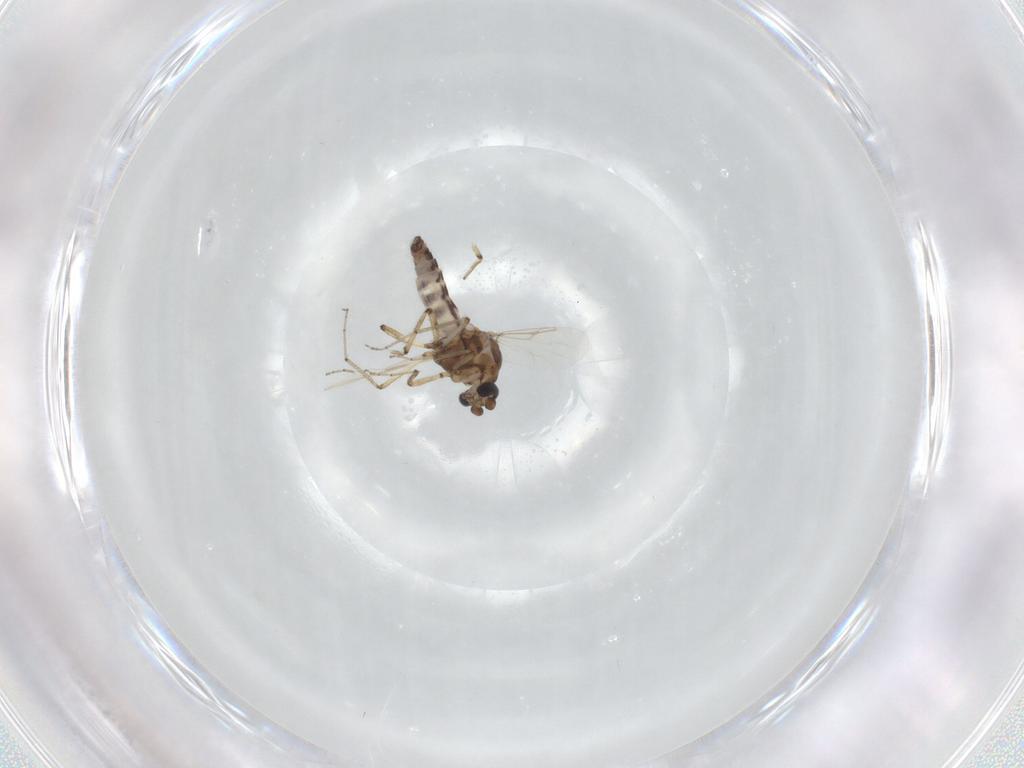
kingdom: Animalia
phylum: Arthropoda
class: Insecta
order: Diptera
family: Ceratopogonidae
